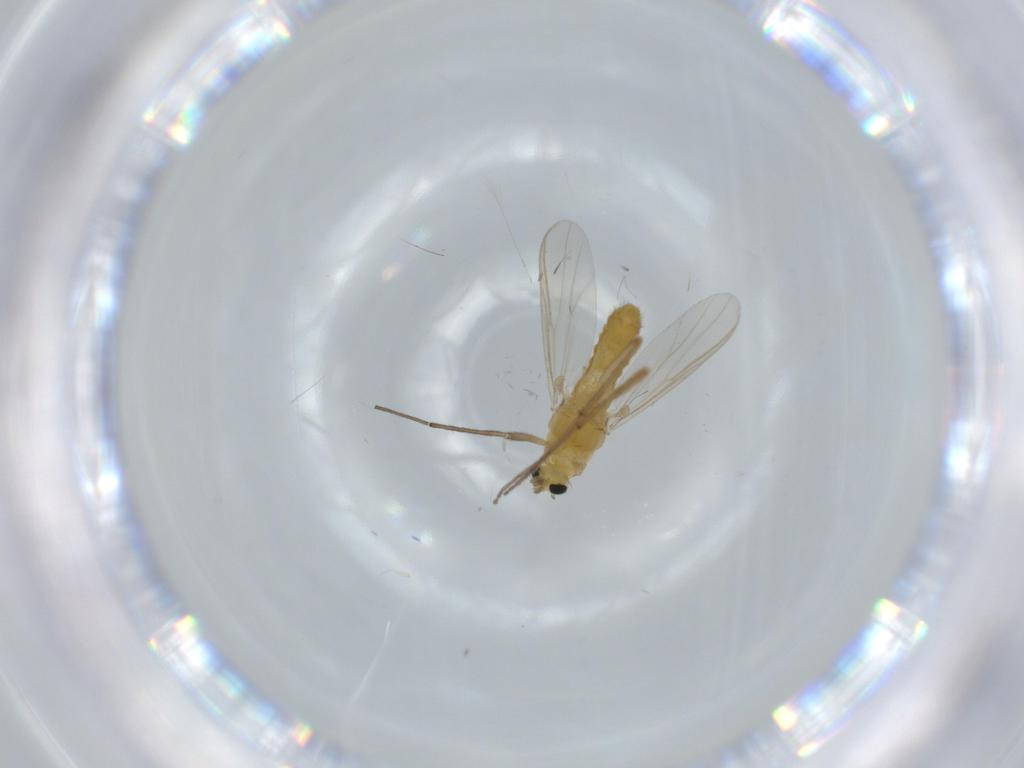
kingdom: Animalia
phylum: Arthropoda
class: Insecta
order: Diptera
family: Chironomidae
